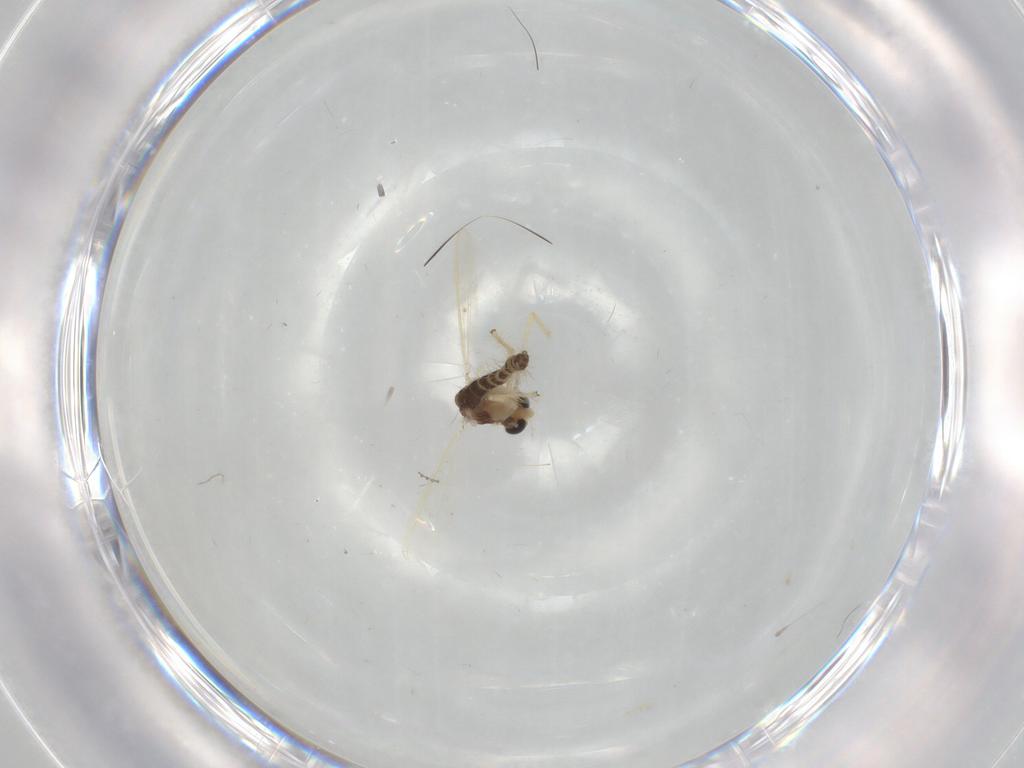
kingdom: Animalia
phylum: Arthropoda
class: Insecta
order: Diptera
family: Chironomidae
